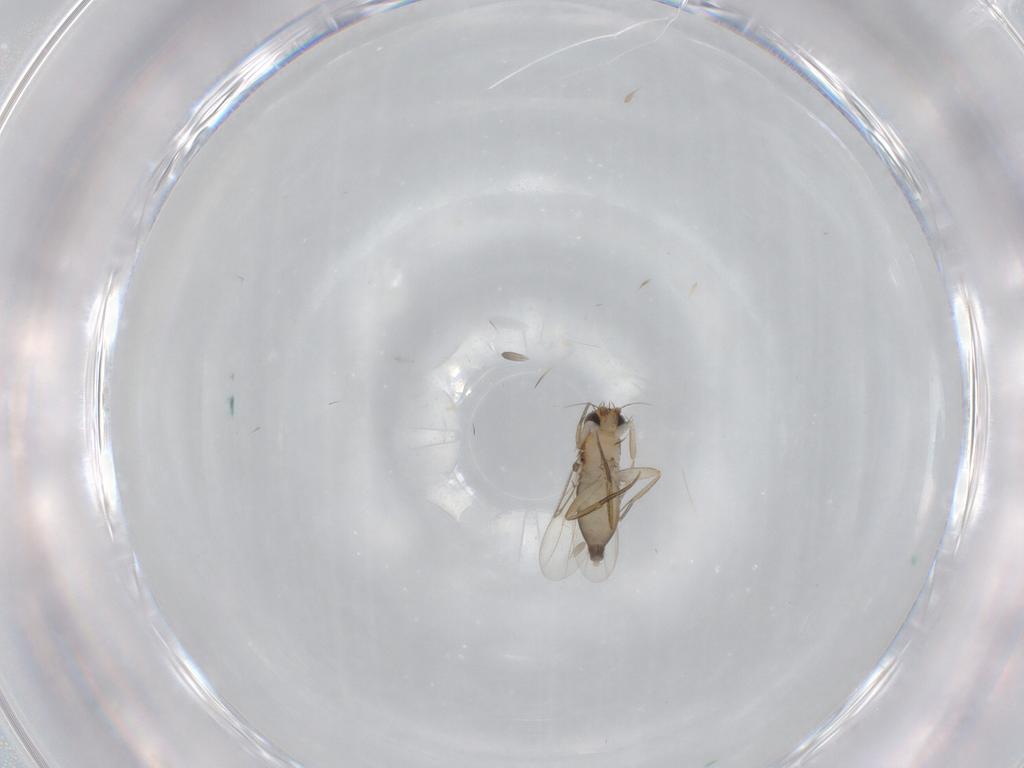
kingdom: Animalia
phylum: Arthropoda
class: Insecta
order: Diptera
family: Phoridae
